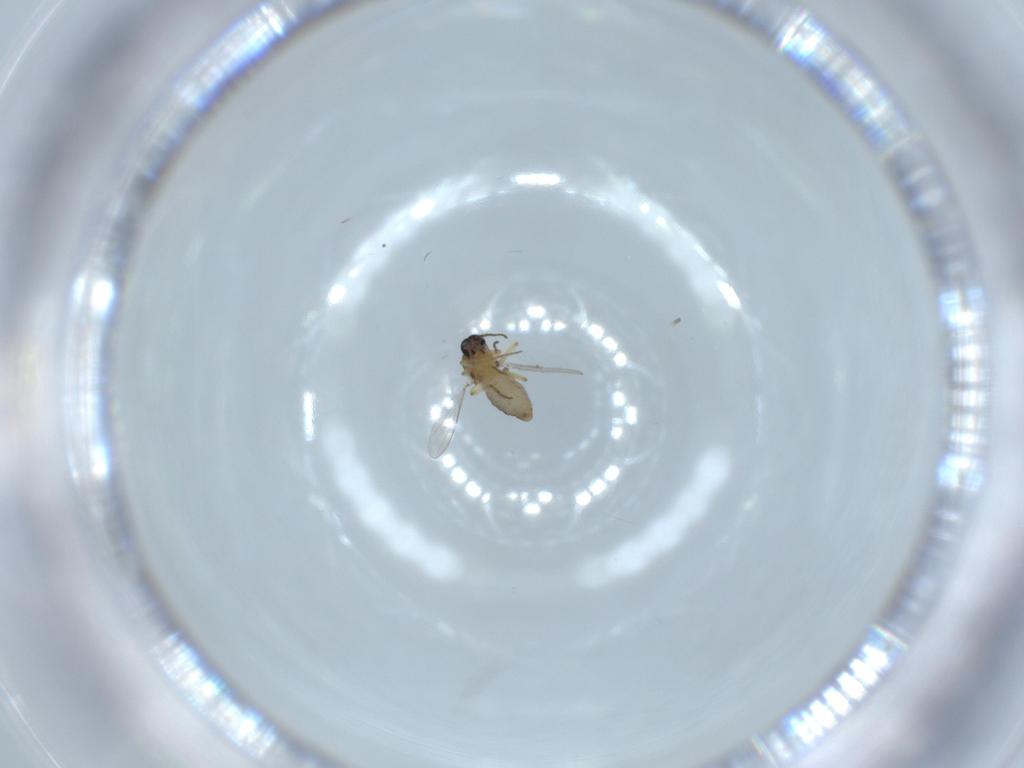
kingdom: Animalia
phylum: Arthropoda
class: Insecta
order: Diptera
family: Ceratopogonidae
